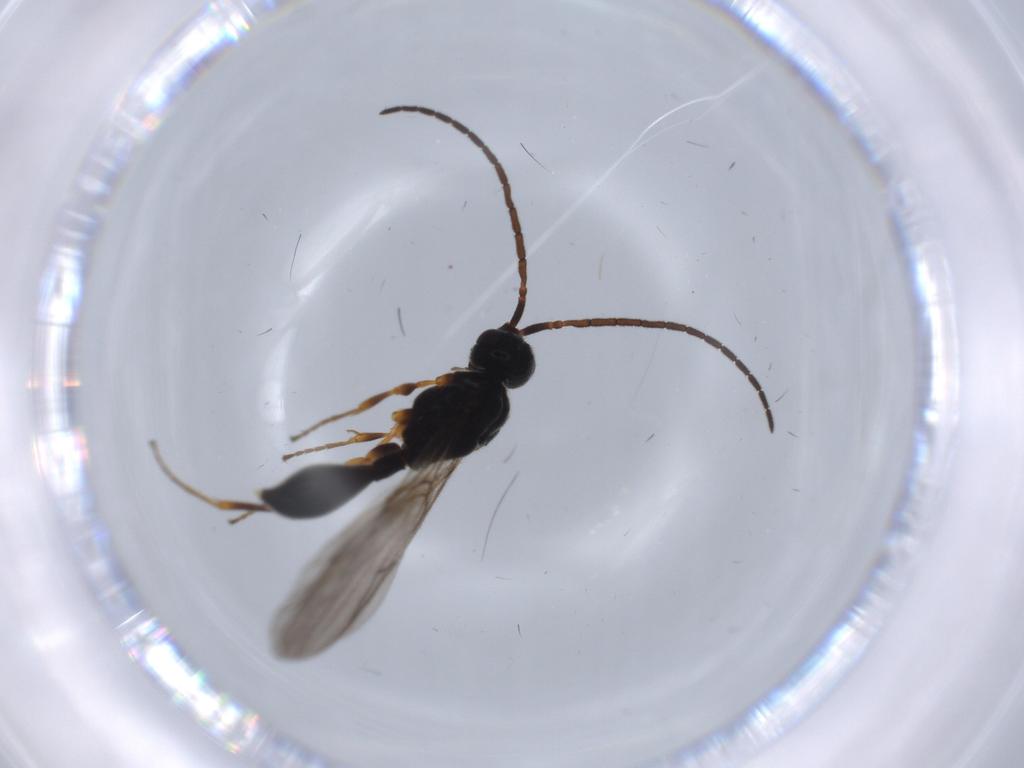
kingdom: Animalia
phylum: Arthropoda
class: Insecta
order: Hymenoptera
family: Diapriidae
